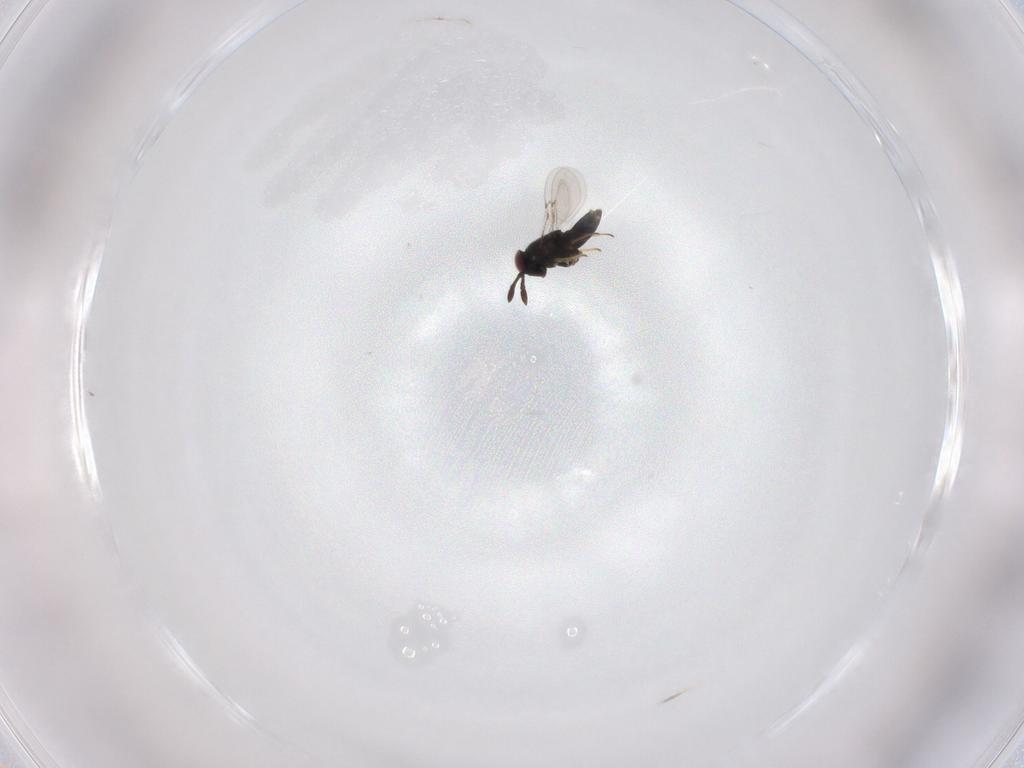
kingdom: Animalia
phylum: Arthropoda
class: Insecta
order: Hymenoptera
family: Encyrtidae
